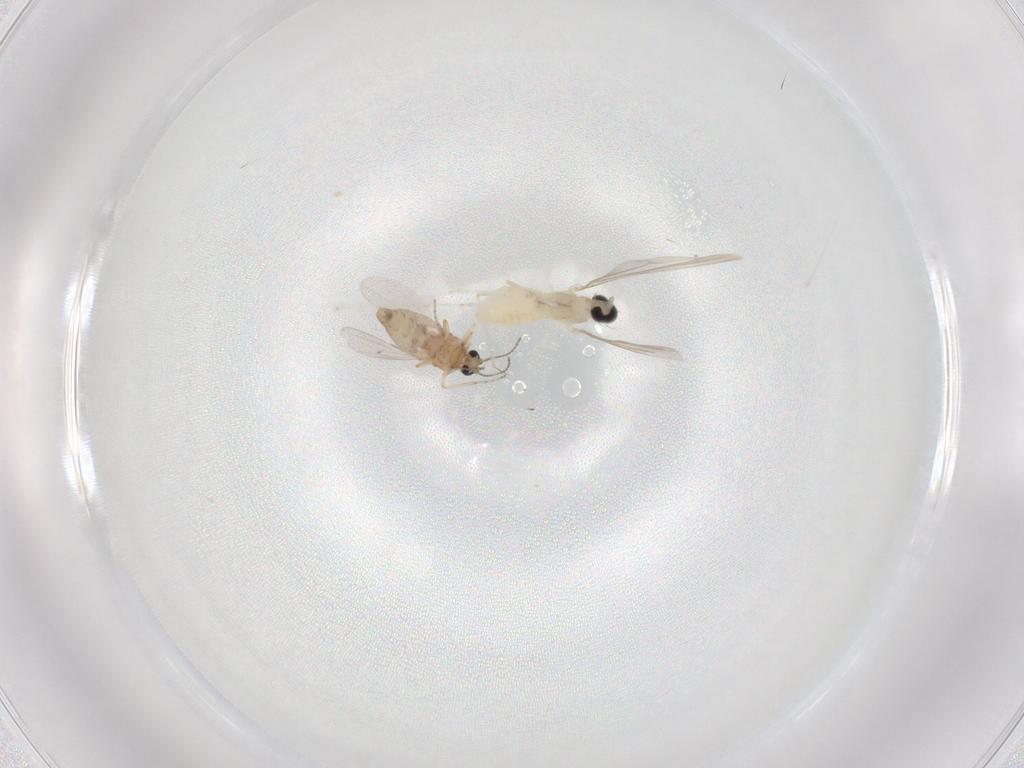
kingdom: Animalia
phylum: Arthropoda
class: Insecta
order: Diptera
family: Ceratopogonidae
